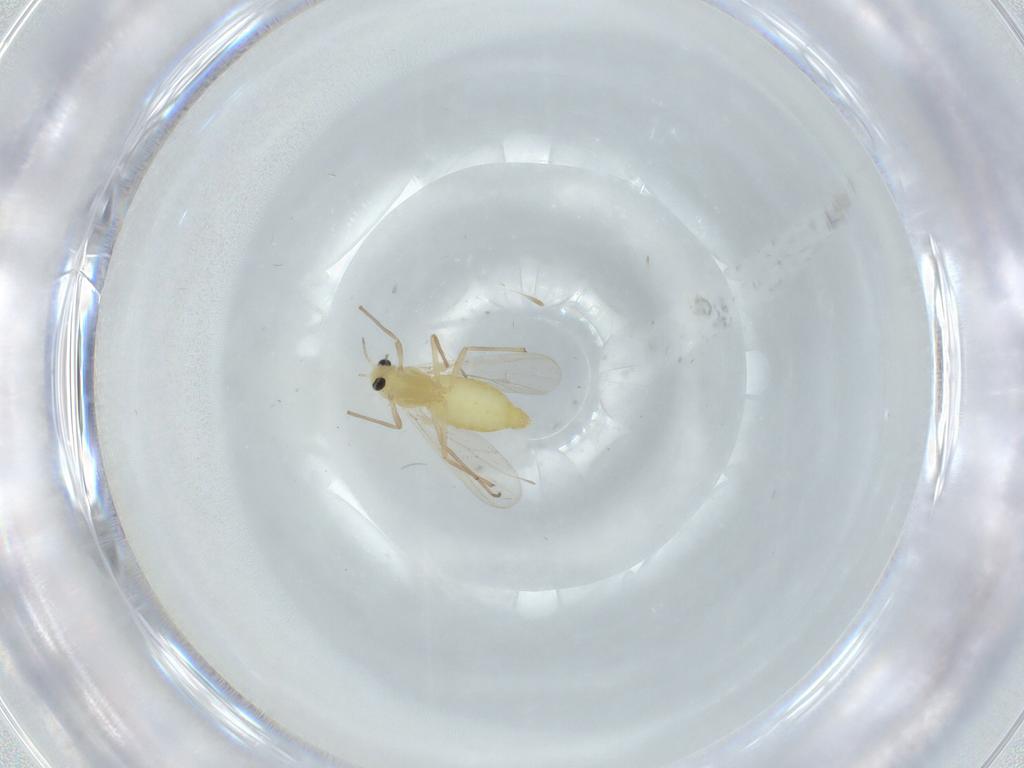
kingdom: Animalia
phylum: Arthropoda
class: Insecta
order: Diptera
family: Chironomidae
